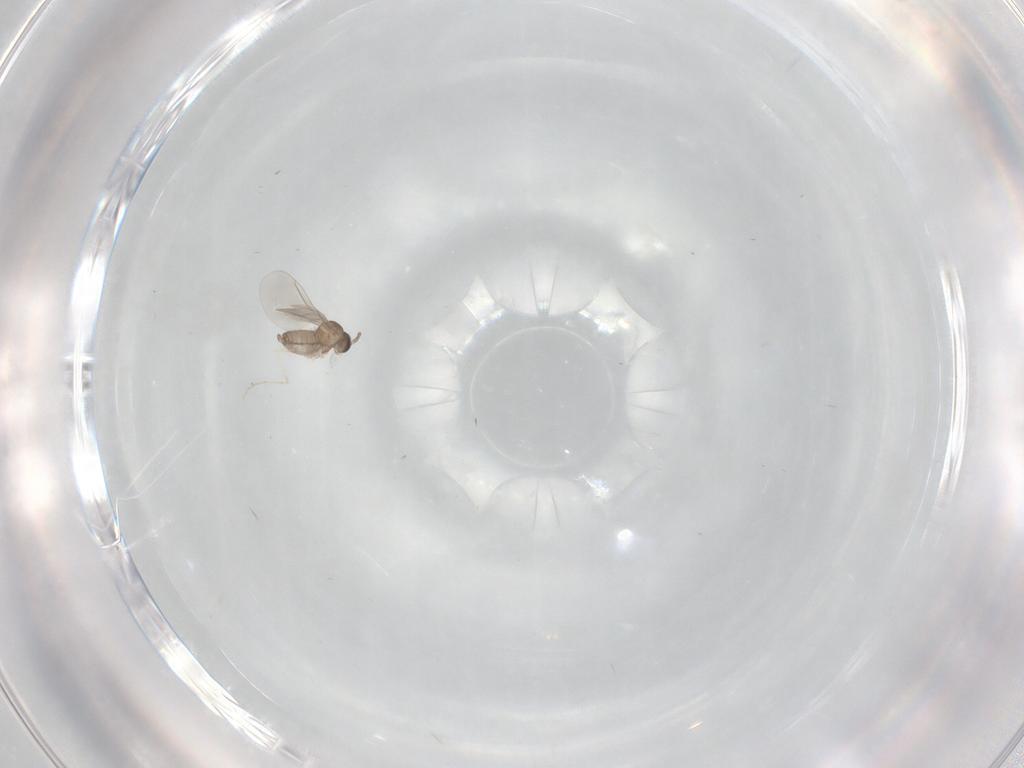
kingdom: Animalia
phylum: Arthropoda
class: Insecta
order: Diptera
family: Cecidomyiidae
